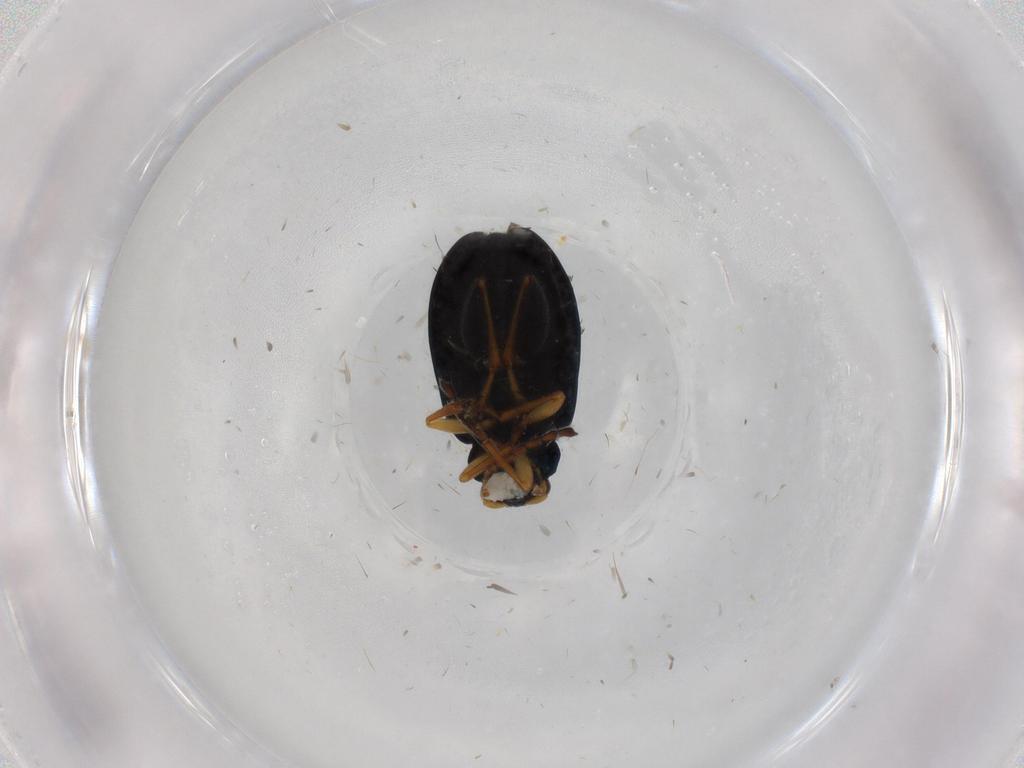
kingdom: Animalia
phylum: Arthropoda
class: Insecta
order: Coleoptera
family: Chrysomelidae
